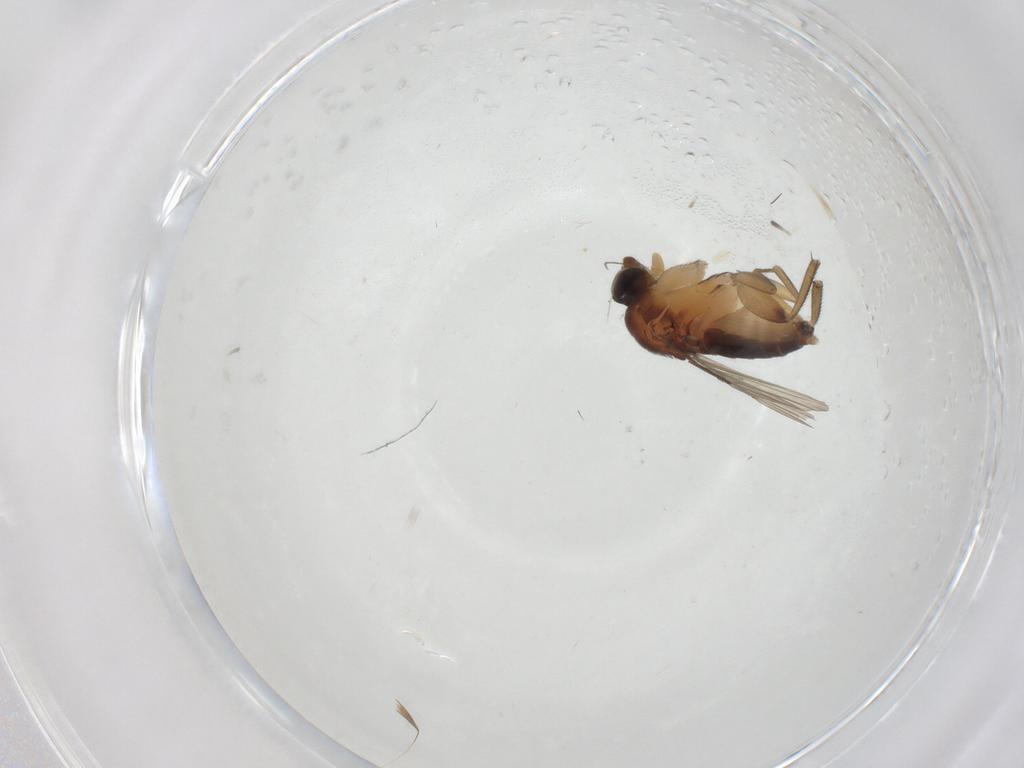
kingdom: Animalia
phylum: Arthropoda
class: Insecta
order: Diptera
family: Phoridae
